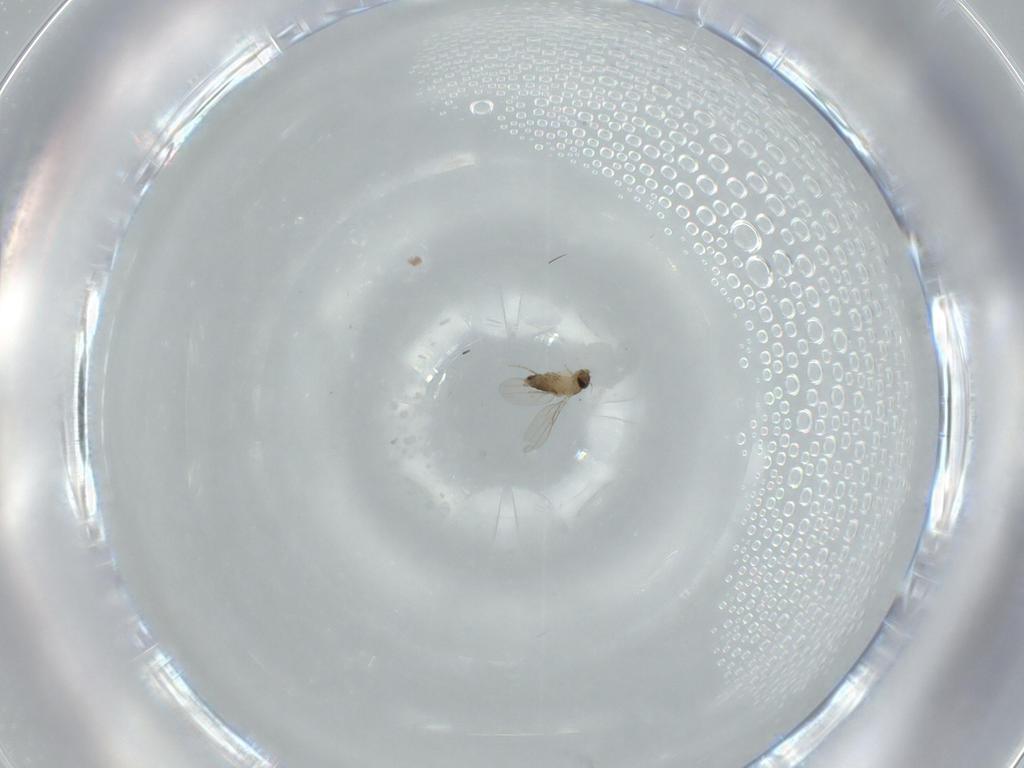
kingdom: Animalia
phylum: Arthropoda
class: Insecta
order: Diptera
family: Phoridae
